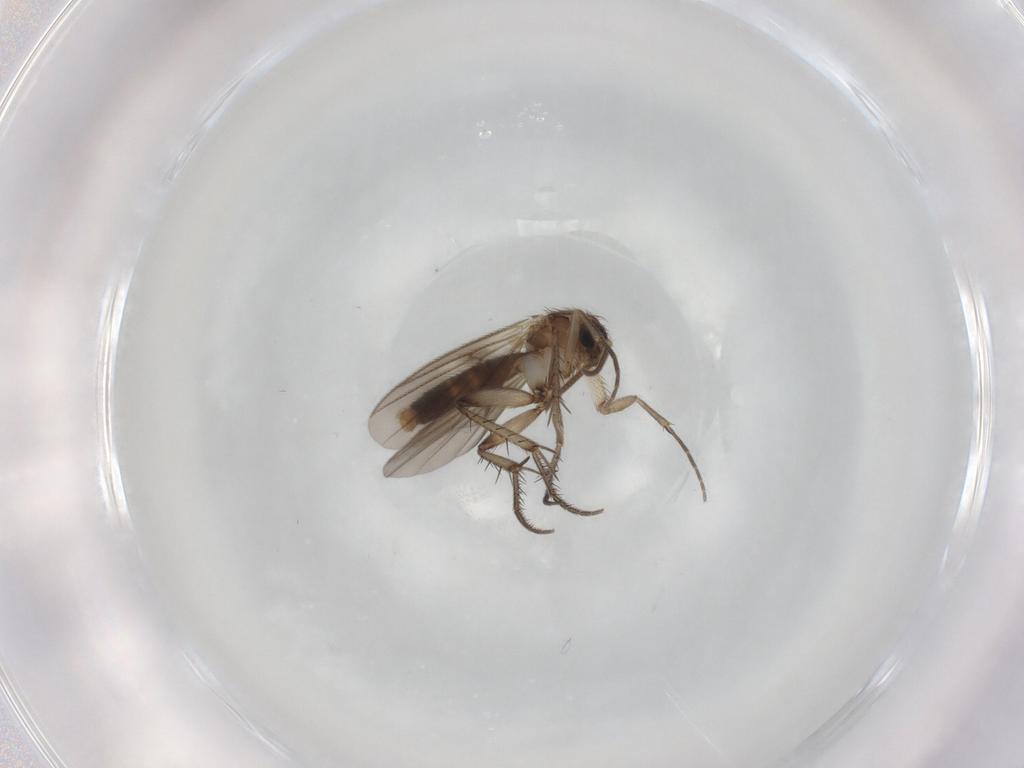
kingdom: Animalia
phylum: Arthropoda
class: Insecta
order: Diptera
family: Mycetophilidae
